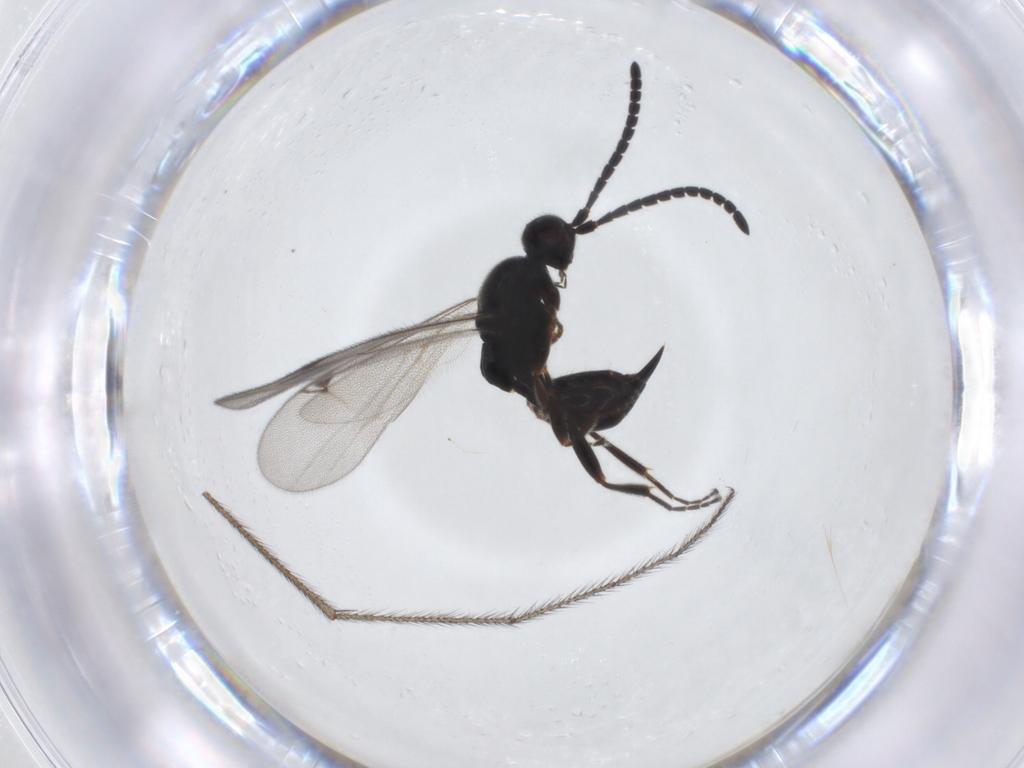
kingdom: Animalia
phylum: Arthropoda
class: Insecta
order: Hymenoptera
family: Proctotrupidae
